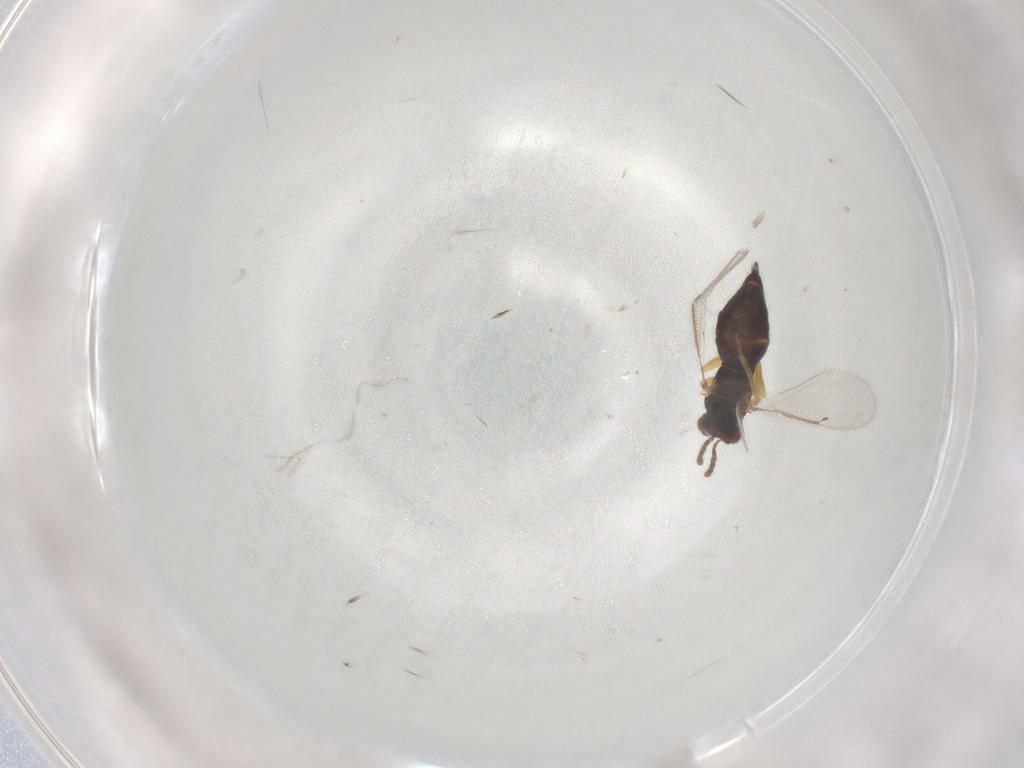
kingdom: Animalia
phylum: Arthropoda
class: Insecta
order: Hymenoptera
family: Eulophidae
